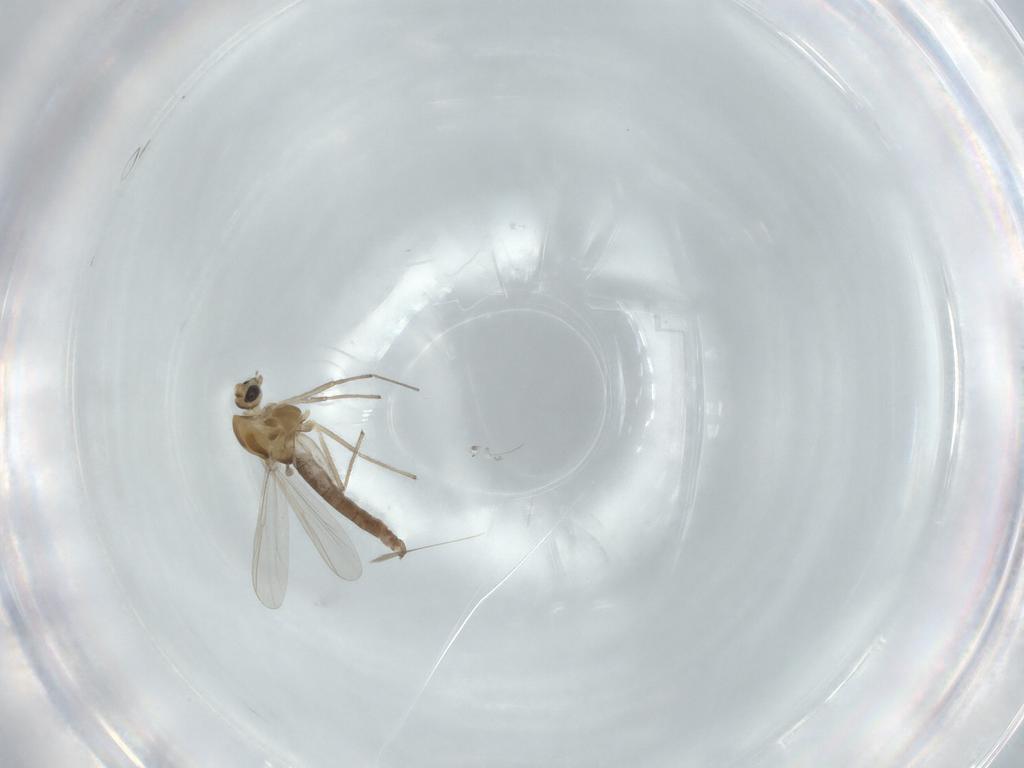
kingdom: Animalia
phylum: Arthropoda
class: Insecta
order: Diptera
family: Chironomidae
